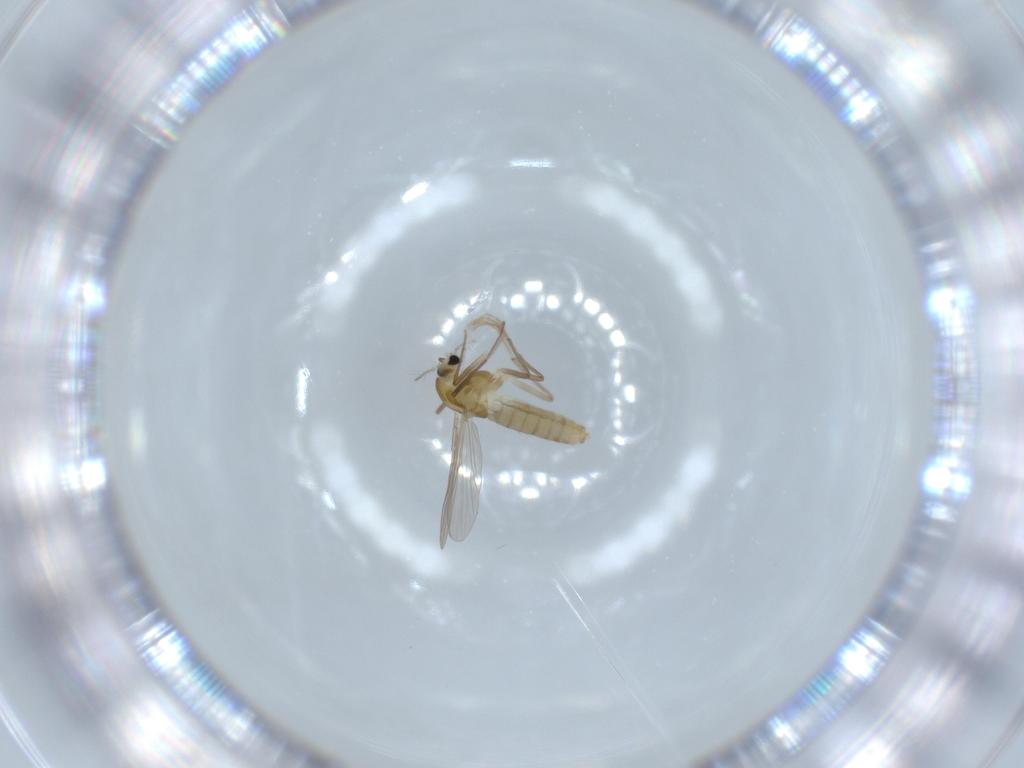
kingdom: Animalia
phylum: Arthropoda
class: Insecta
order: Diptera
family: Chironomidae
